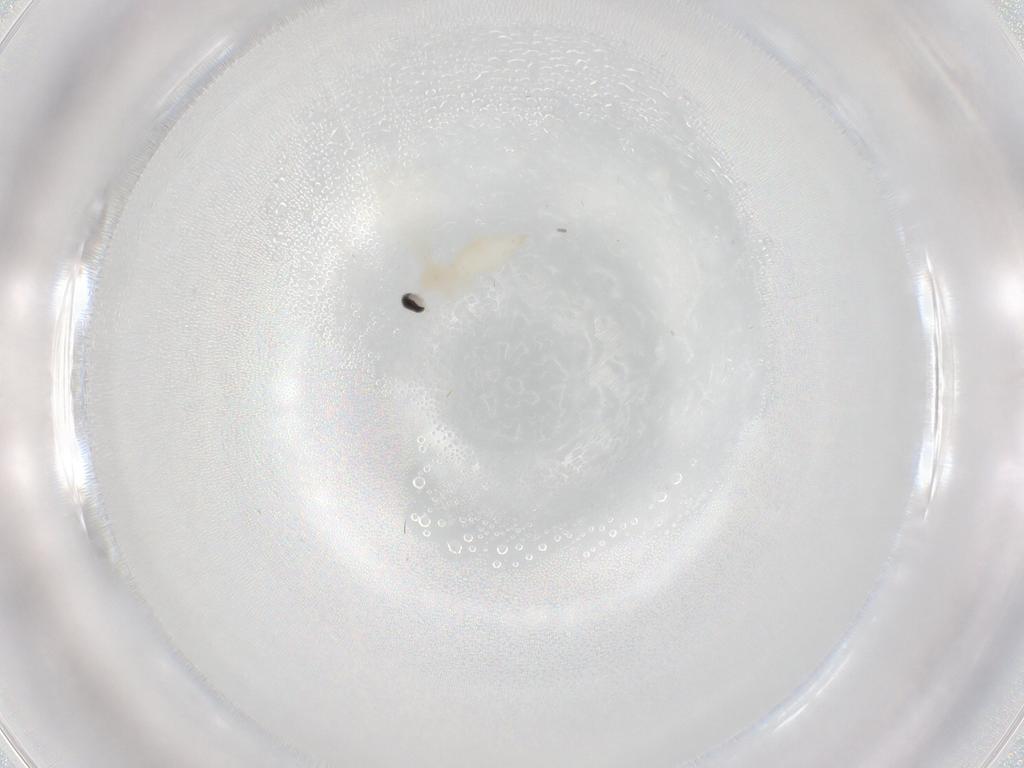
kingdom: Animalia
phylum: Arthropoda
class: Insecta
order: Diptera
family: Cecidomyiidae
